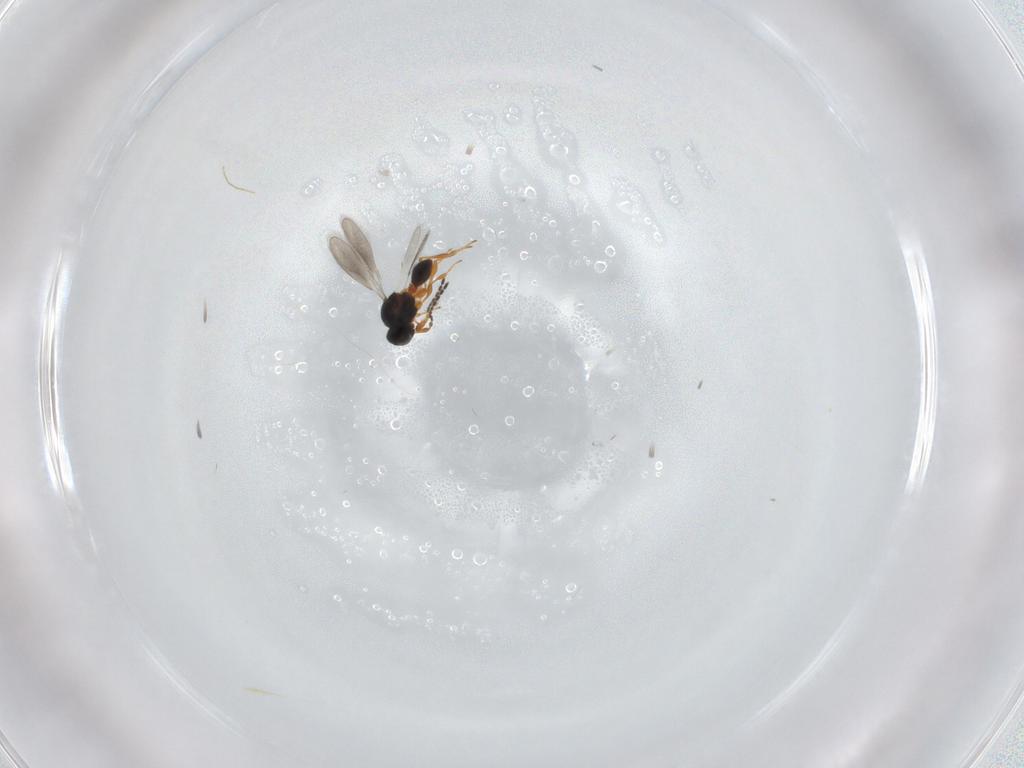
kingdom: Animalia
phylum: Arthropoda
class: Insecta
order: Hymenoptera
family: Platygastridae
